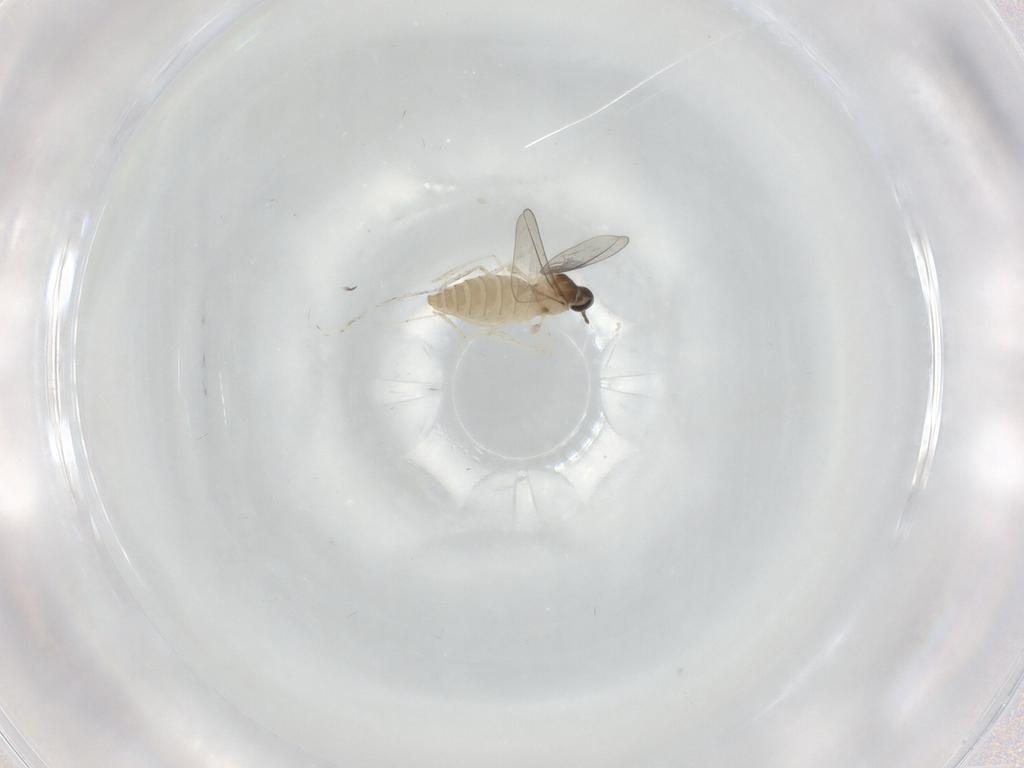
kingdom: Animalia
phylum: Arthropoda
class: Insecta
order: Diptera
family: Cecidomyiidae
